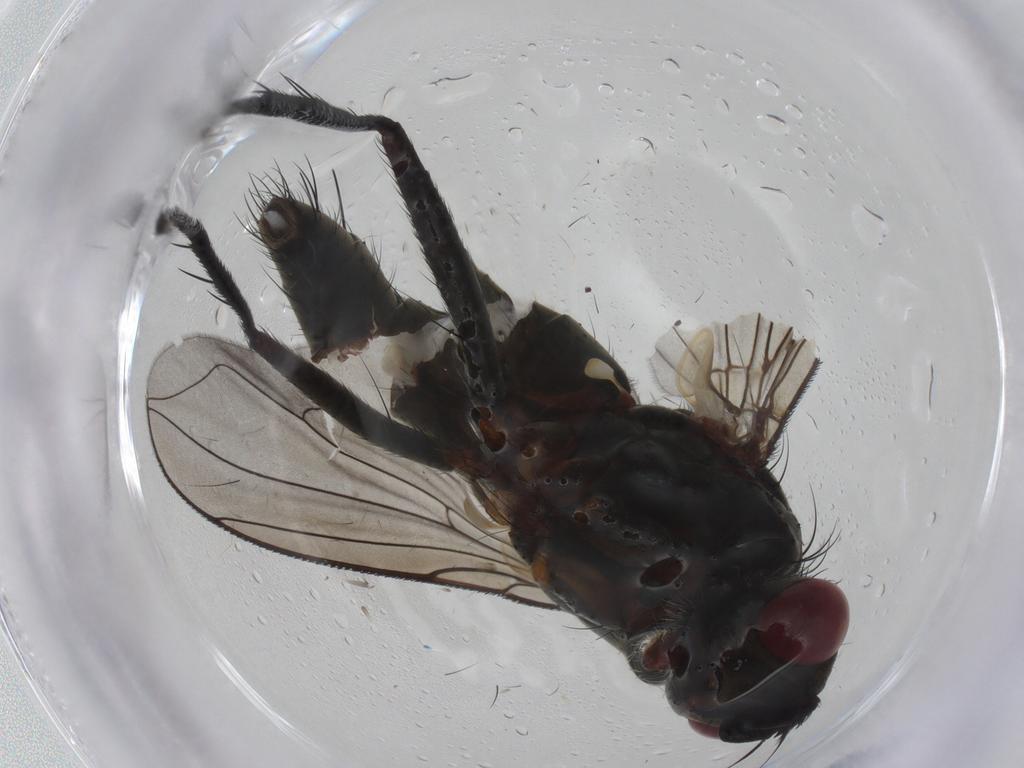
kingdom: Animalia
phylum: Arthropoda
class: Insecta
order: Diptera
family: Tachinidae
